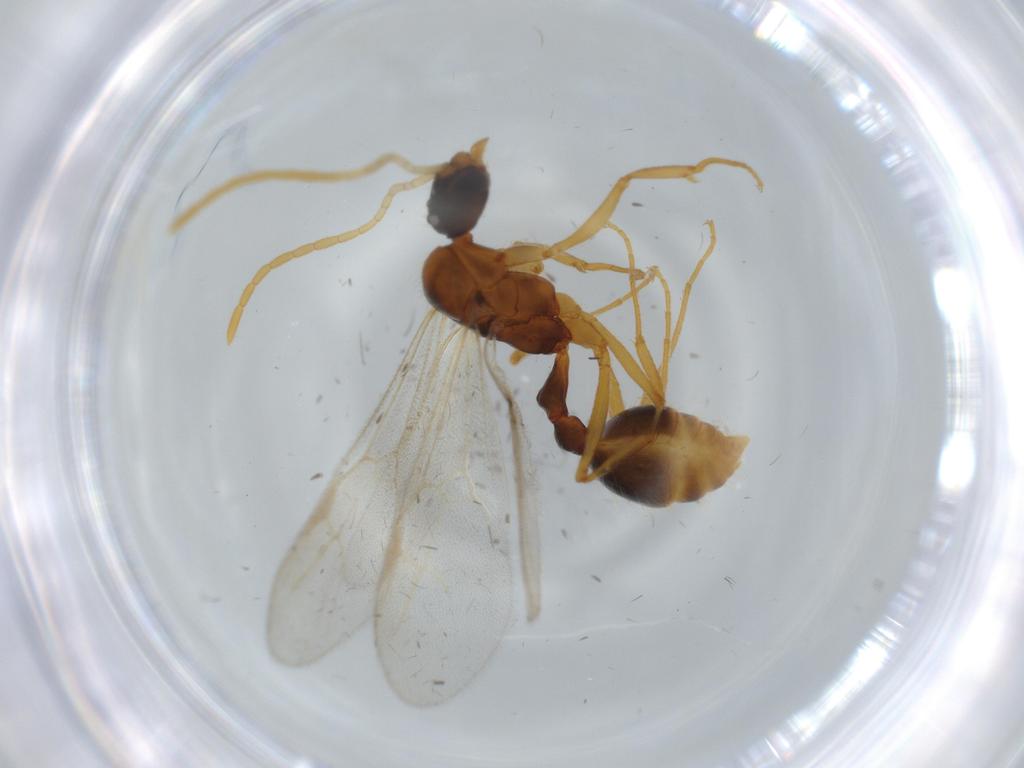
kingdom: Animalia
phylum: Arthropoda
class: Insecta
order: Hymenoptera
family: Formicidae
